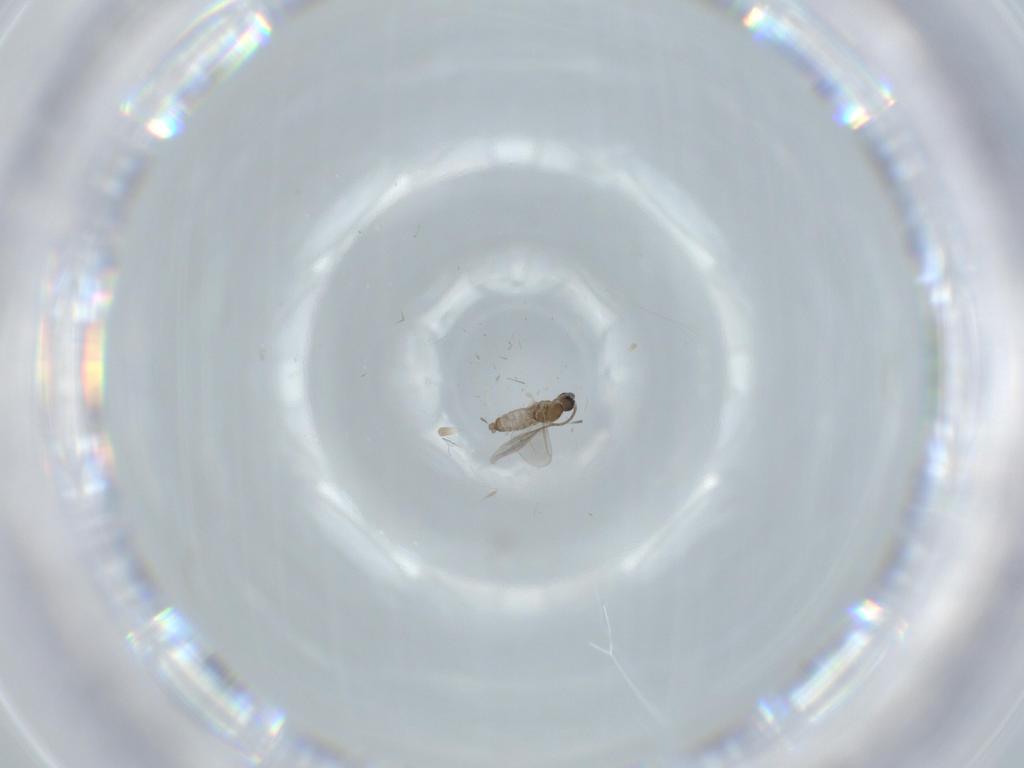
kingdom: Animalia
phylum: Arthropoda
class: Insecta
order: Diptera
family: Cecidomyiidae
